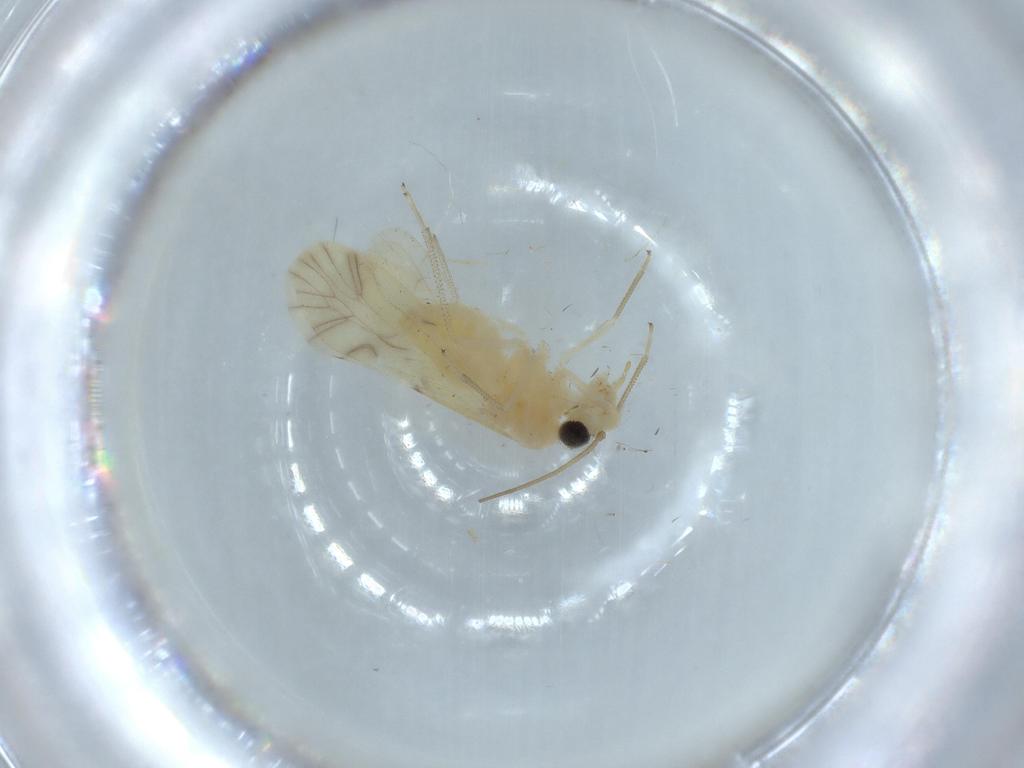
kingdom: Animalia
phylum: Arthropoda
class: Insecta
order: Psocodea
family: Caeciliusidae
